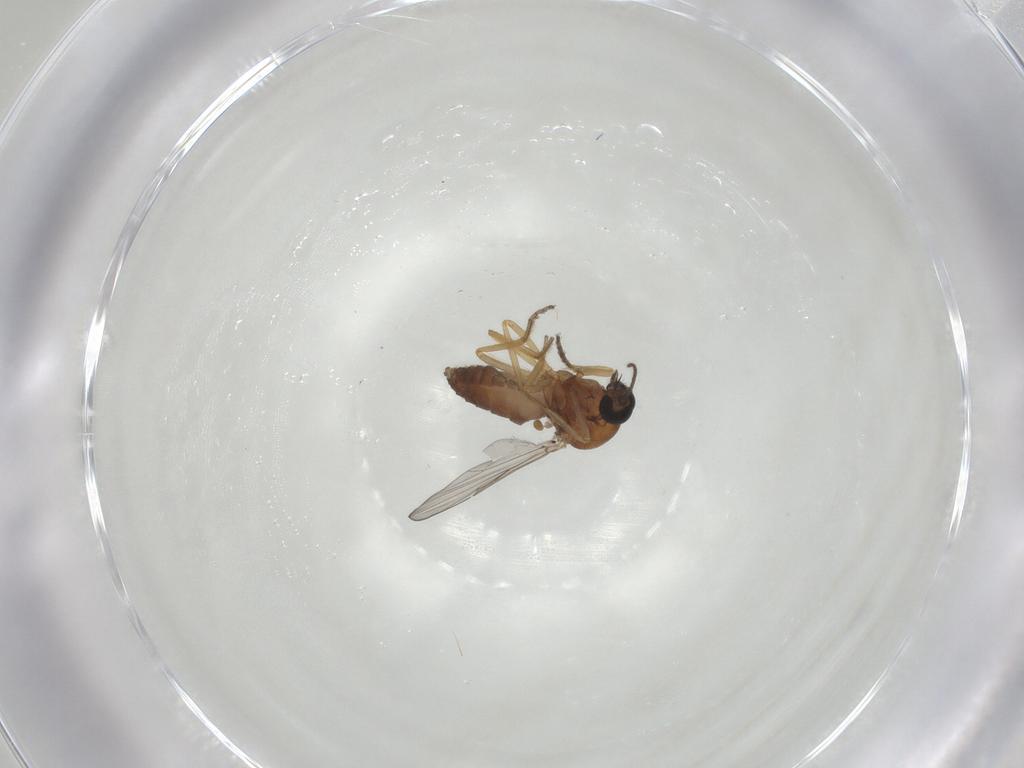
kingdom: Animalia
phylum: Arthropoda
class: Insecta
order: Diptera
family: Ceratopogonidae
